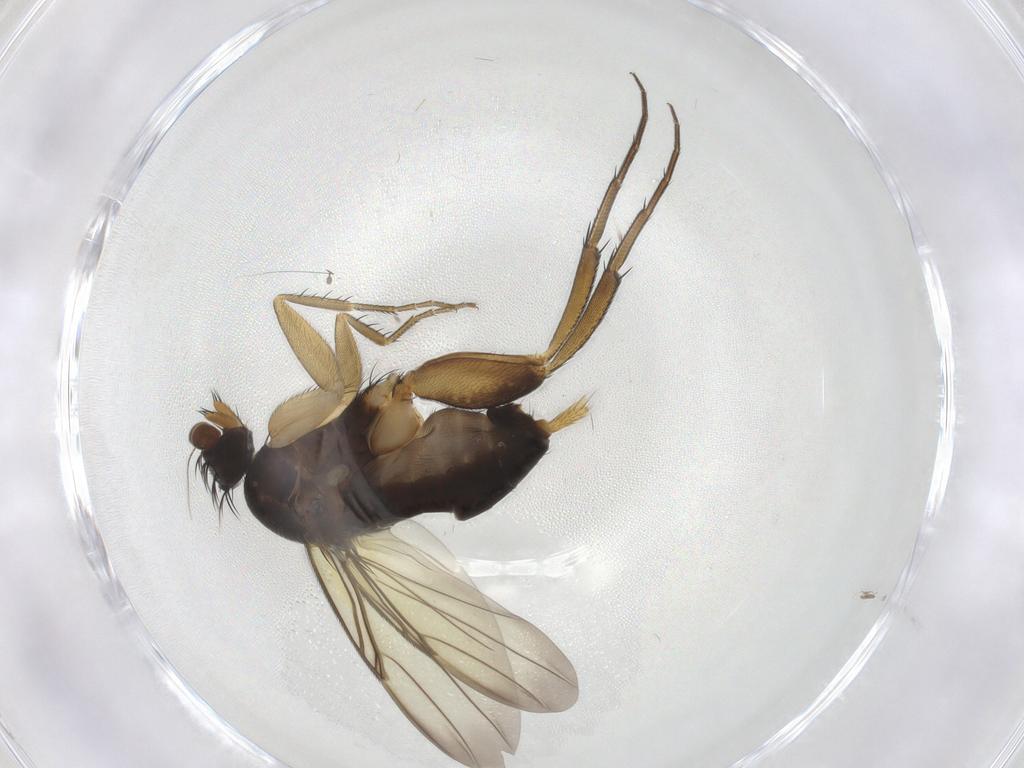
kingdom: Animalia
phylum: Arthropoda
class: Insecta
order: Diptera
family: Phoridae
